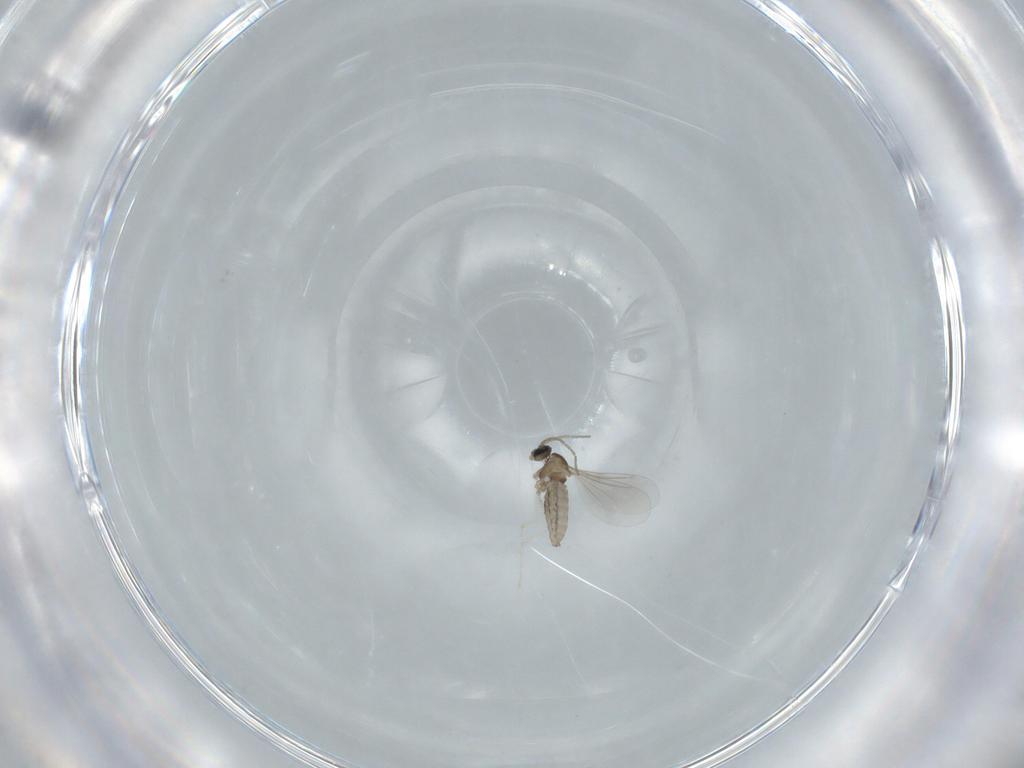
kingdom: Animalia
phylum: Arthropoda
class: Insecta
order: Diptera
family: Cecidomyiidae
